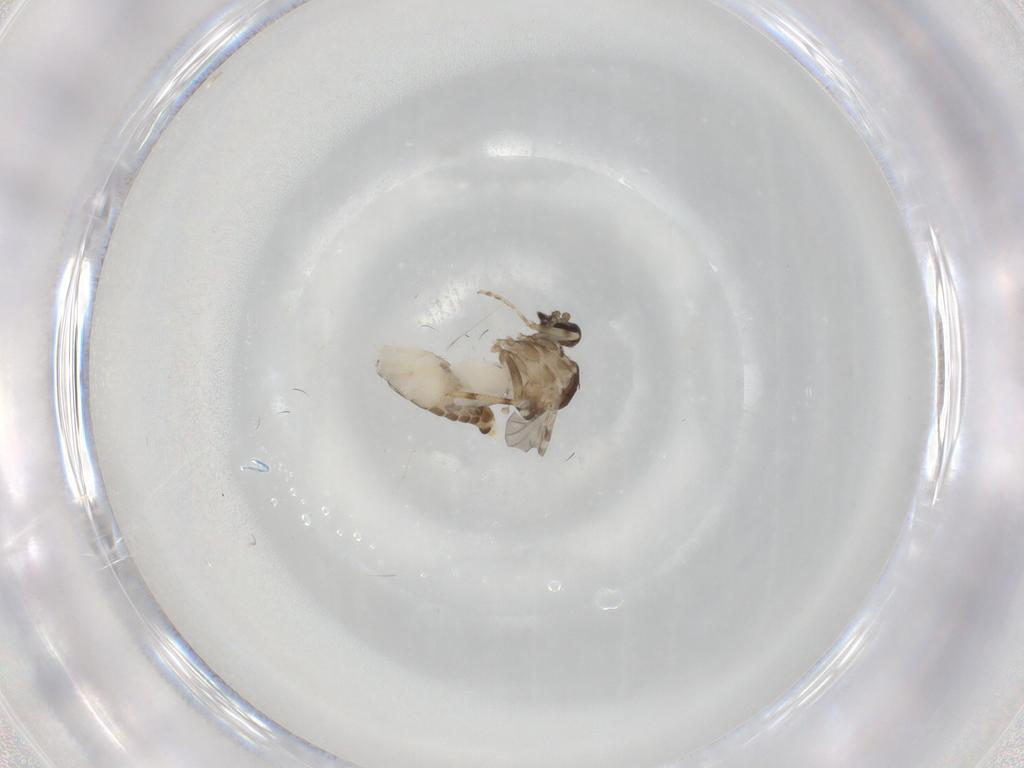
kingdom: Animalia
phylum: Arthropoda
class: Insecta
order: Diptera
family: Ceratopogonidae
